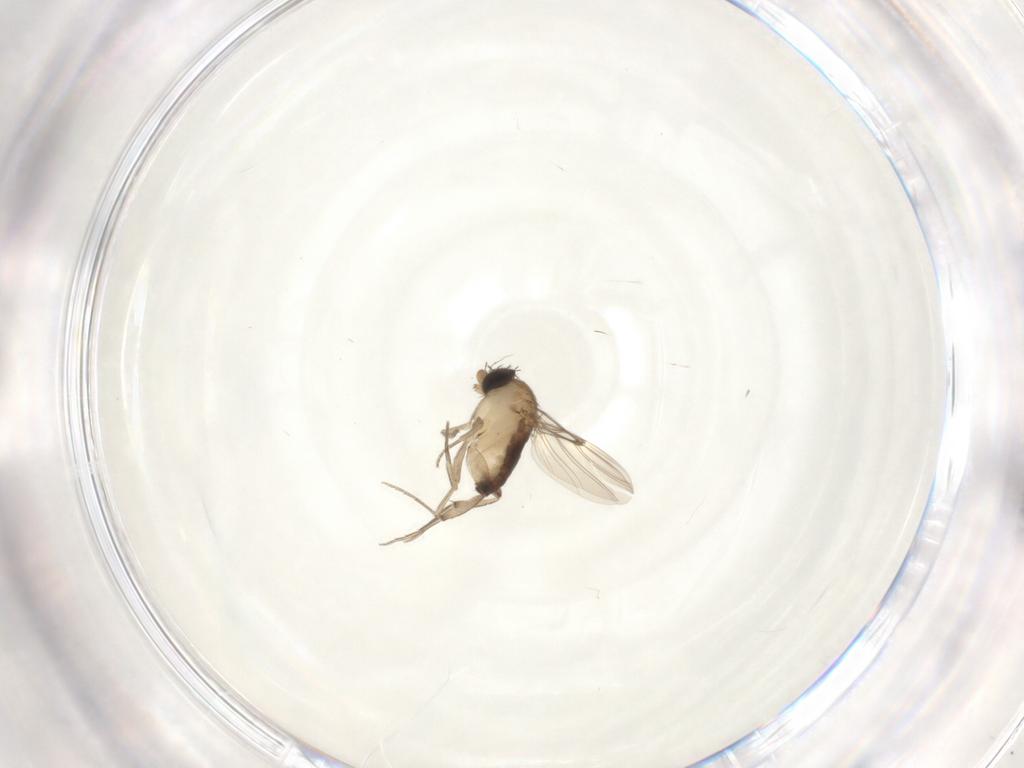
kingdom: Animalia
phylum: Arthropoda
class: Insecta
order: Diptera
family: Phoridae
